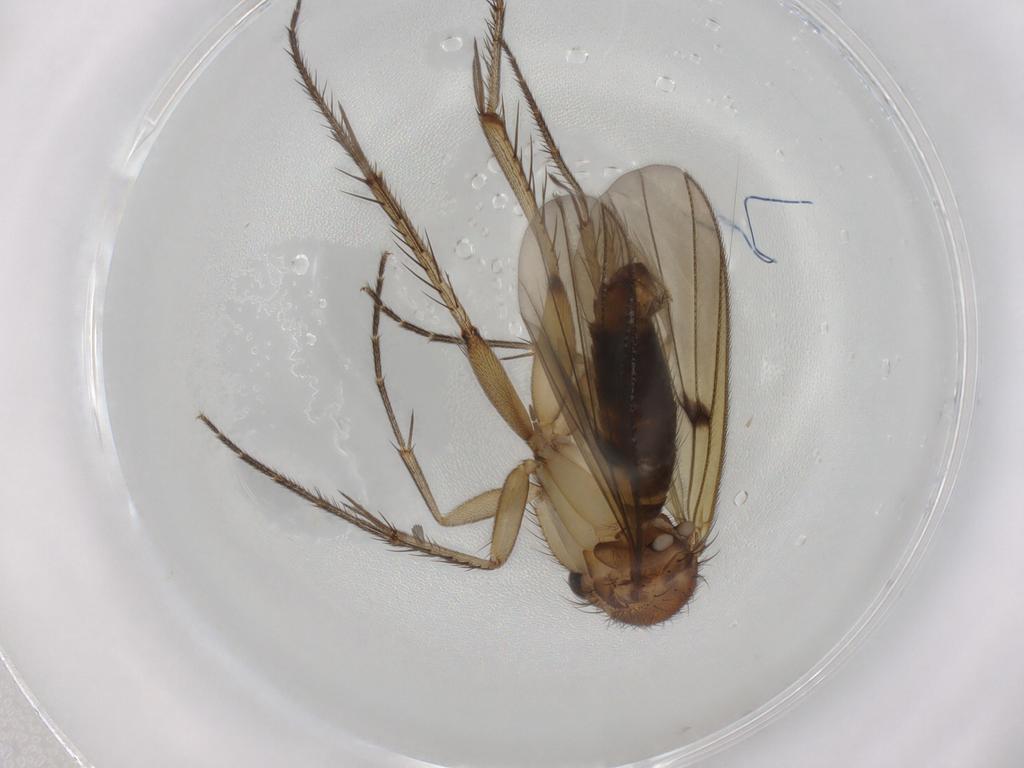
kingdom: Animalia
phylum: Arthropoda
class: Insecta
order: Diptera
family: Mycetophilidae
